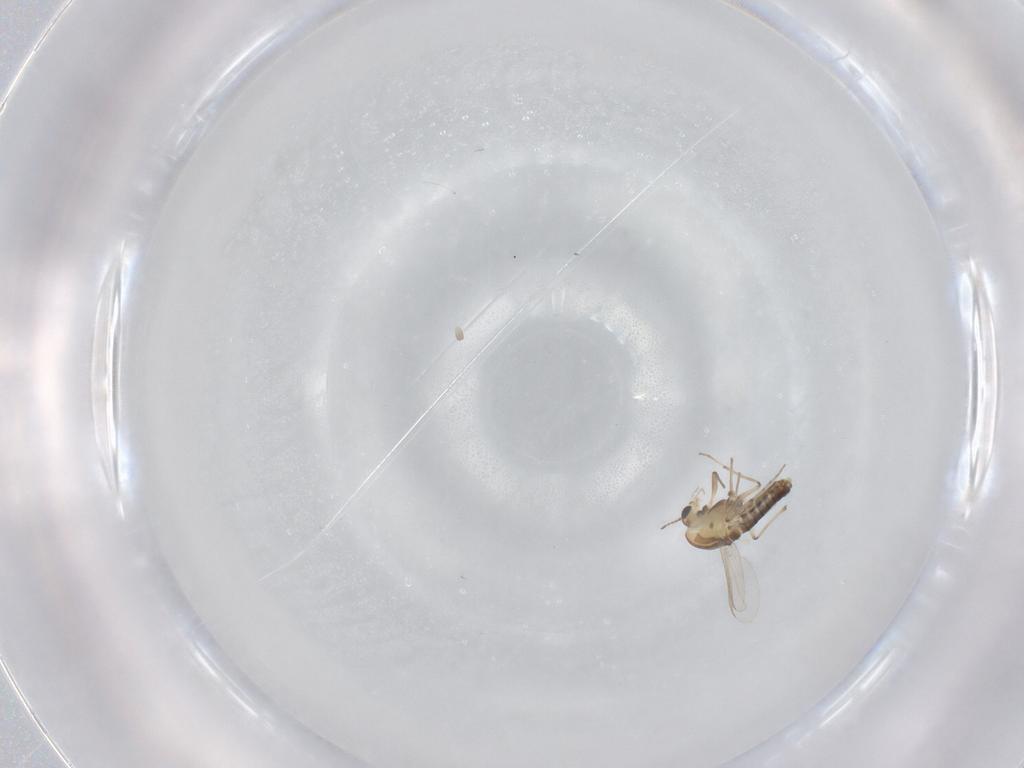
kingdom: Animalia
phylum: Arthropoda
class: Insecta
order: Diptera
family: Chironomidae
